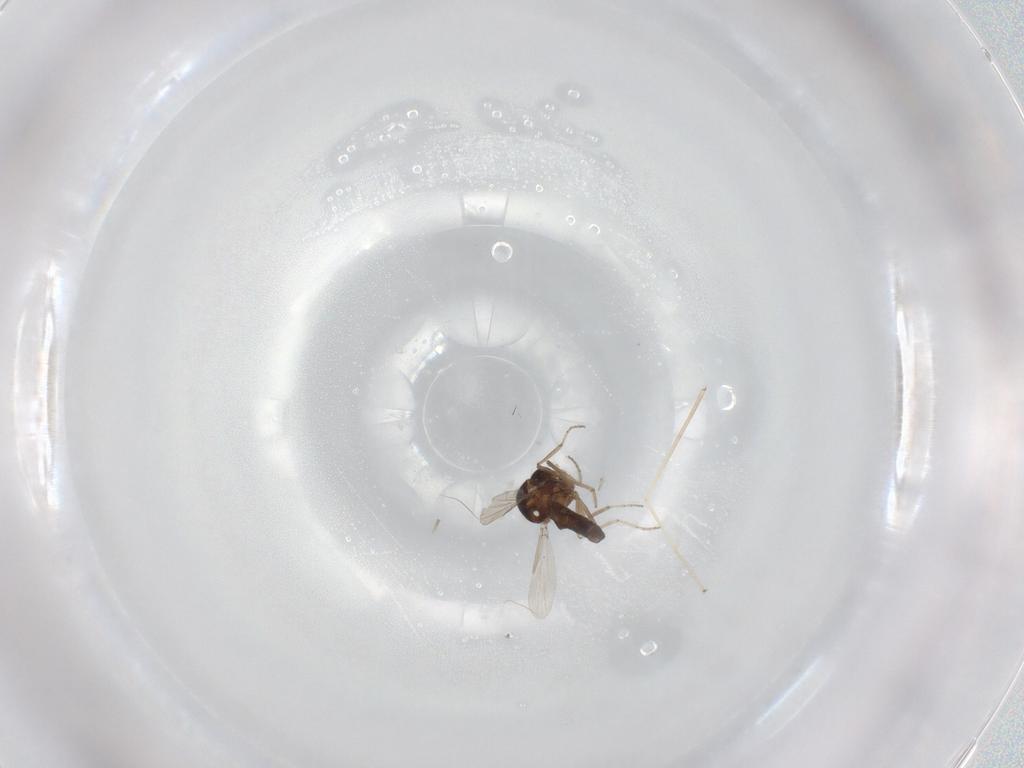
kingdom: Animalia
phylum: Arthropoda
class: Insecta
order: Diptera
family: Ceratopogonidae
